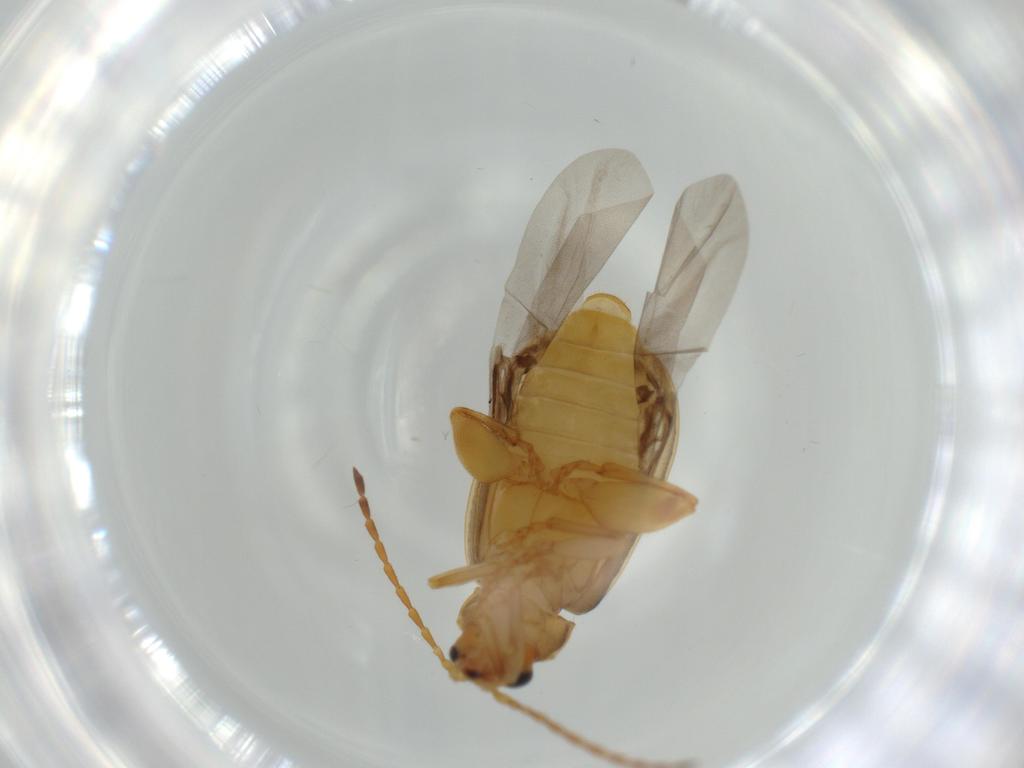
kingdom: Animalia
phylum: Arthropoda
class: Insecta
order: Coleoptera
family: Chrysomelidae
